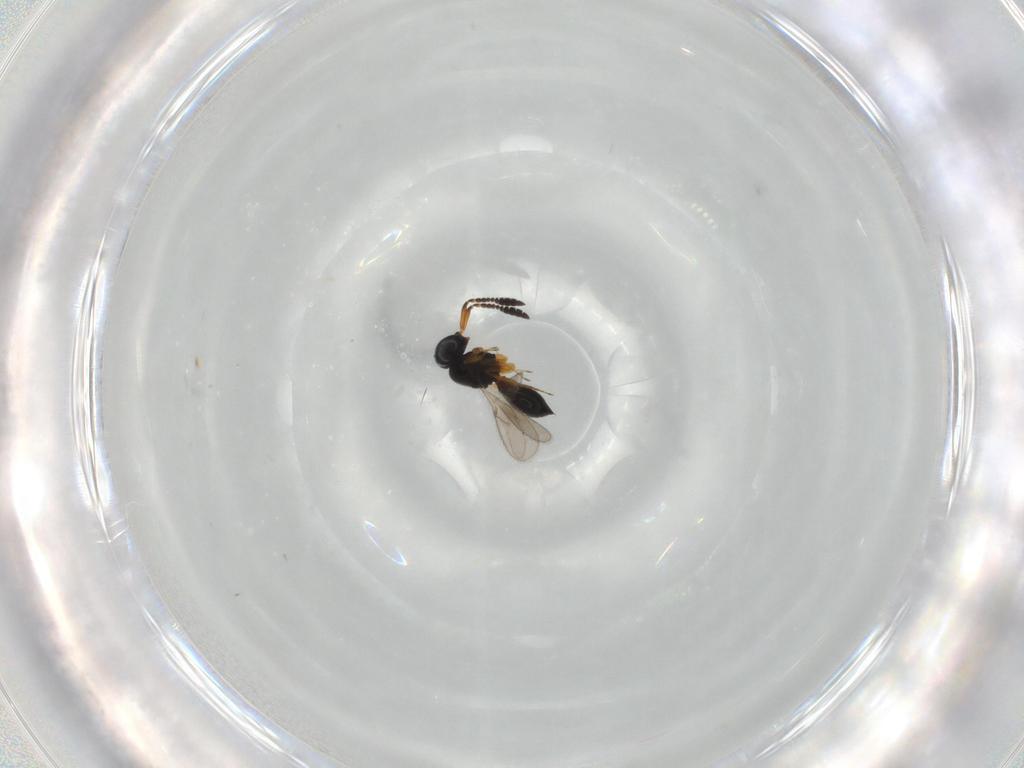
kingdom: Animalia
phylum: Arthropoda
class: Insecta
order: Hymenoptera
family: Scelionidae
